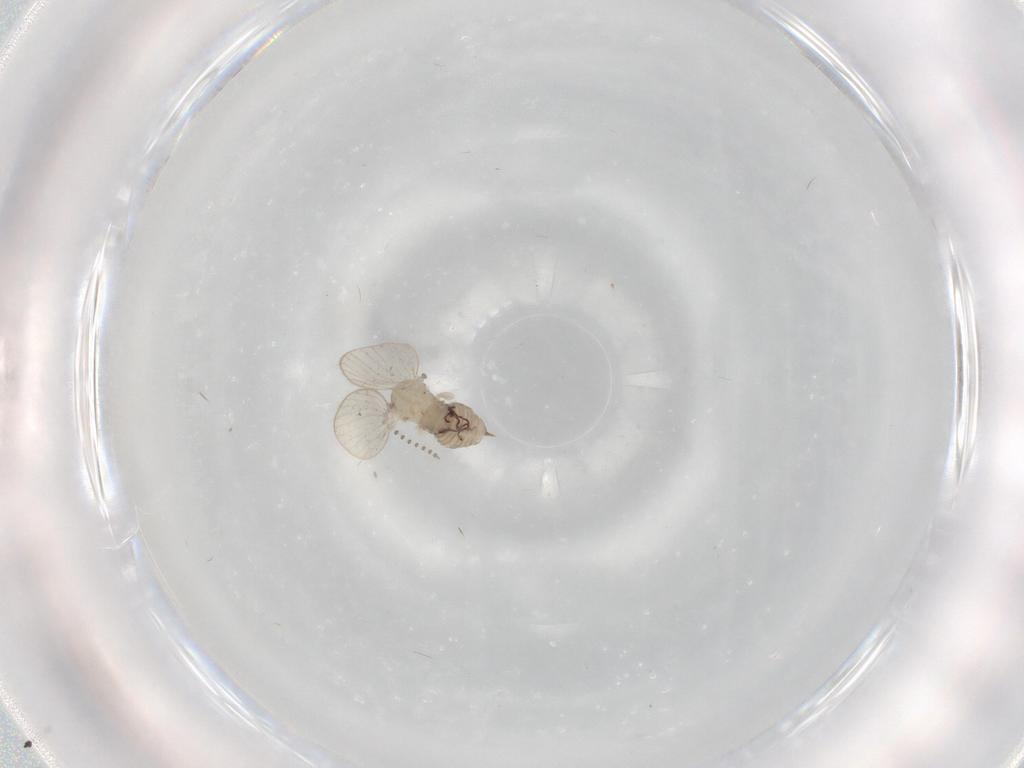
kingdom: Animalia
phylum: Arthropoda
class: Insecta
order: Diptera
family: Psychodidae
